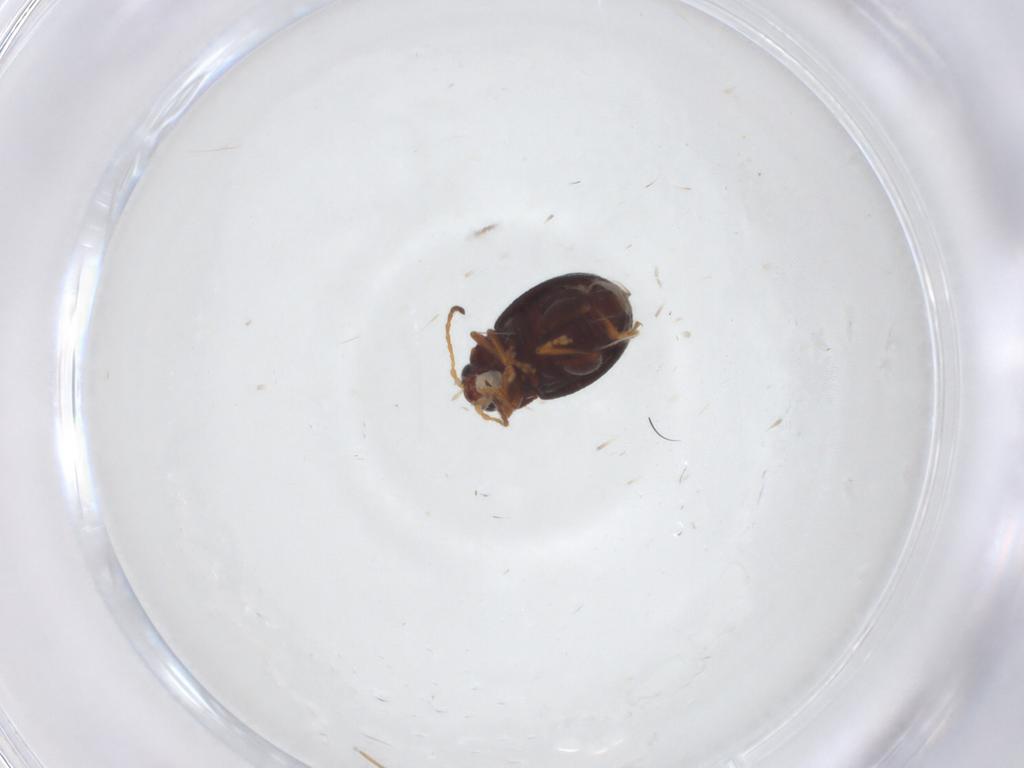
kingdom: Animalia
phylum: Arthropoda
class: Insecta
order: Coleoptera
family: Chrysomelidae
